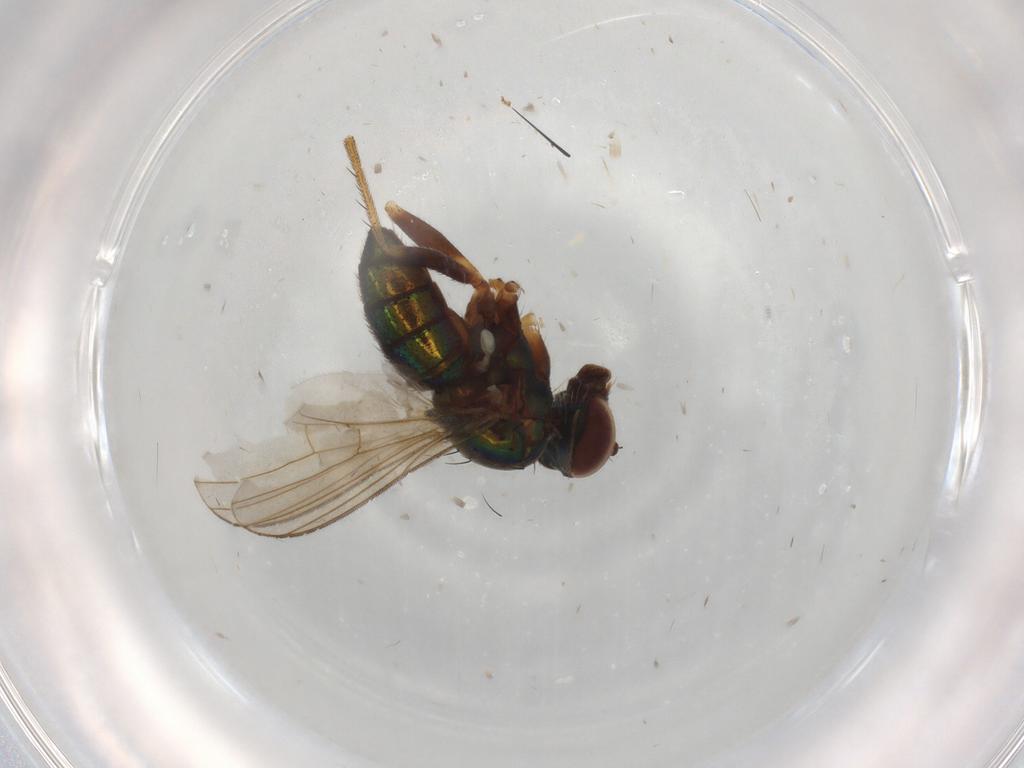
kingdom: Animalia
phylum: Arthropoda
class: Insecta
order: Diptera
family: Dolichopodidae
